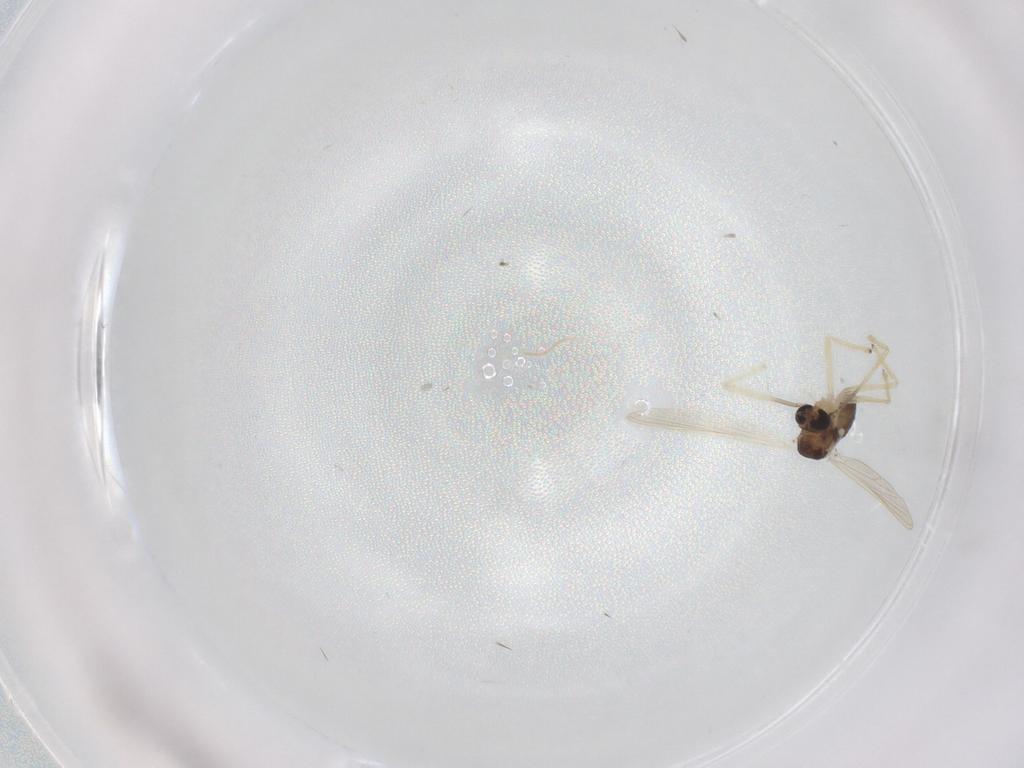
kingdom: Animalia
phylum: Arthropoda
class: Insecta
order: Diptera
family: Chironomidae
